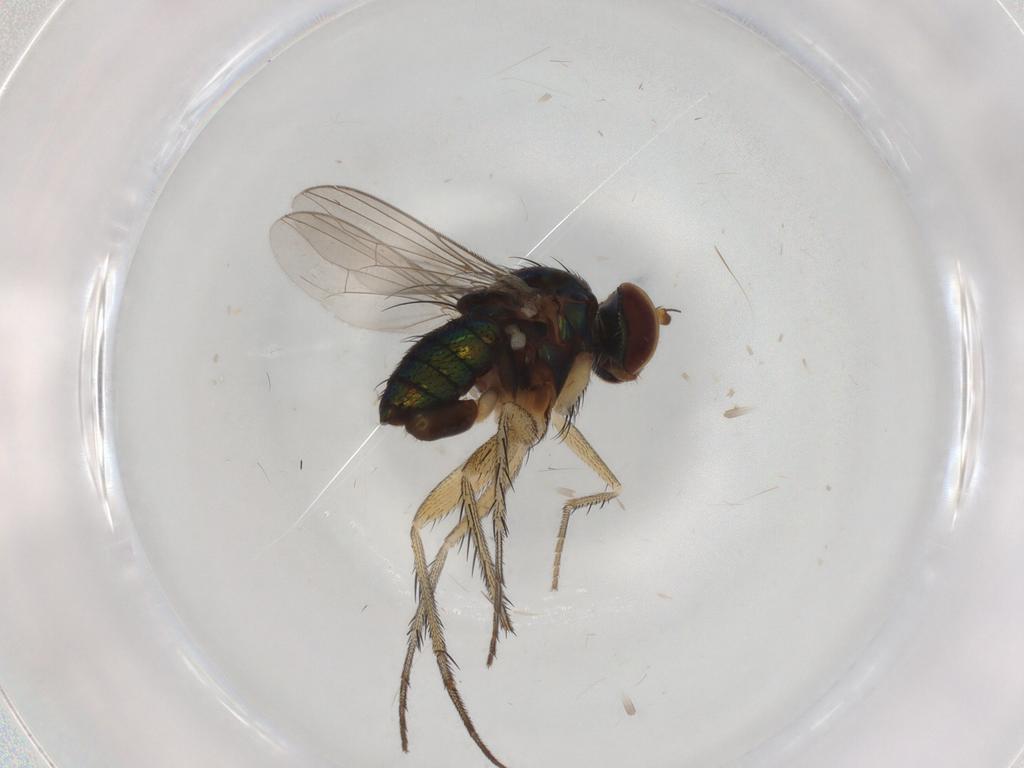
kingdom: Animalia
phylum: Arthropoda
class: Insecta
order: Diptera
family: Dolichopodidae
